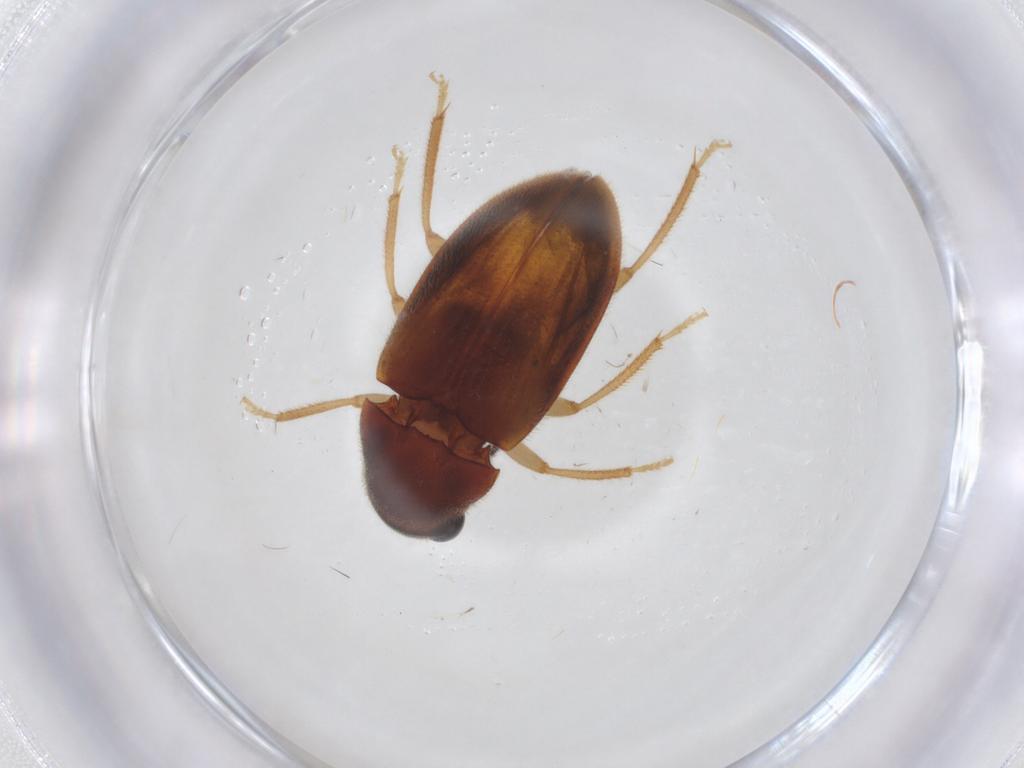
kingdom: Animalia
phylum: Arthropoda
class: Insecta
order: Coleoptera
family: Ptilodactylidae
